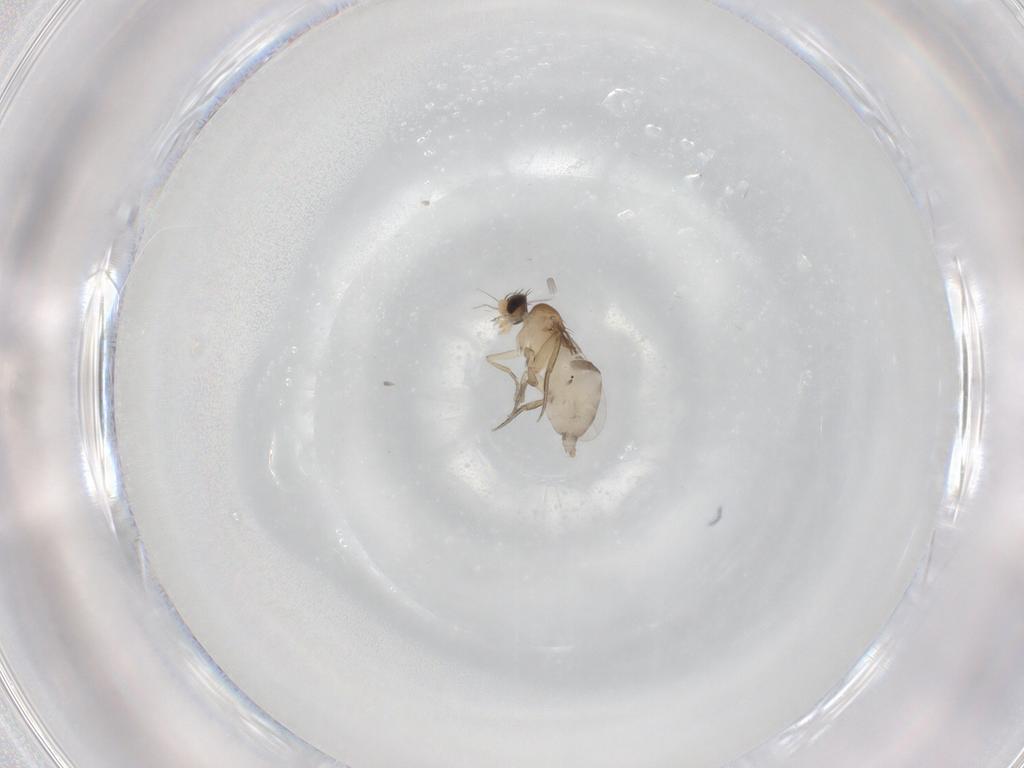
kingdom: Animalia
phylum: Arthropoda
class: Insecta
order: Diptera
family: Phoridae
